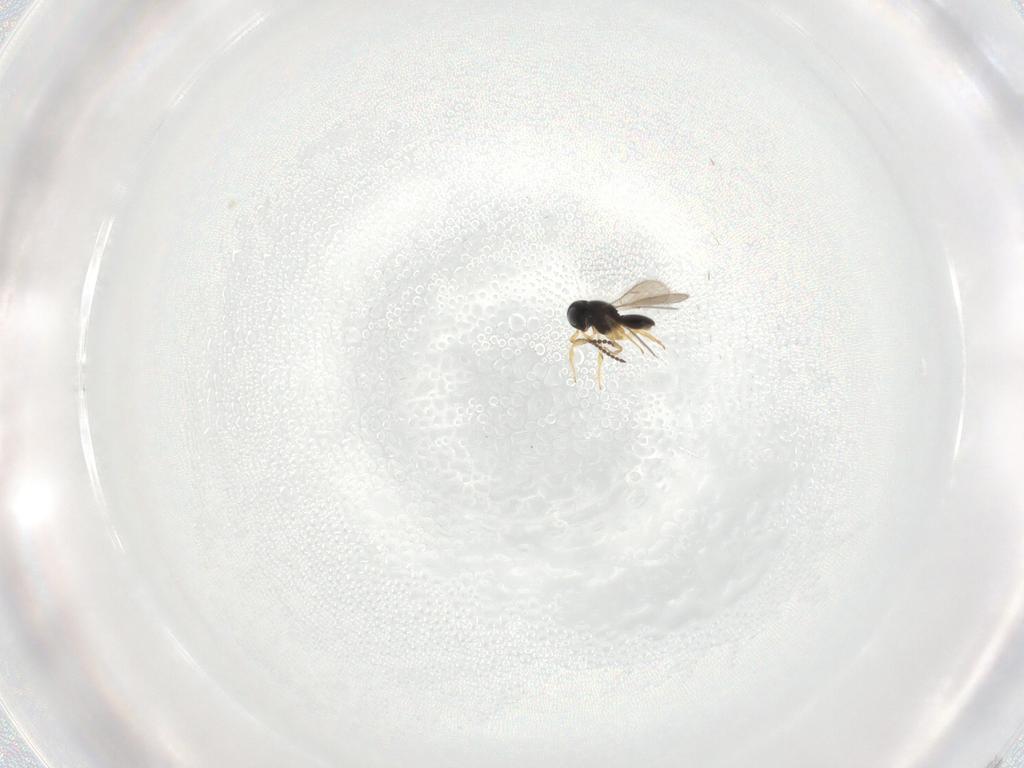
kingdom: Animalia
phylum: Arthropoda
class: Insecta
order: Hymenoptera
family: Scelionidae
